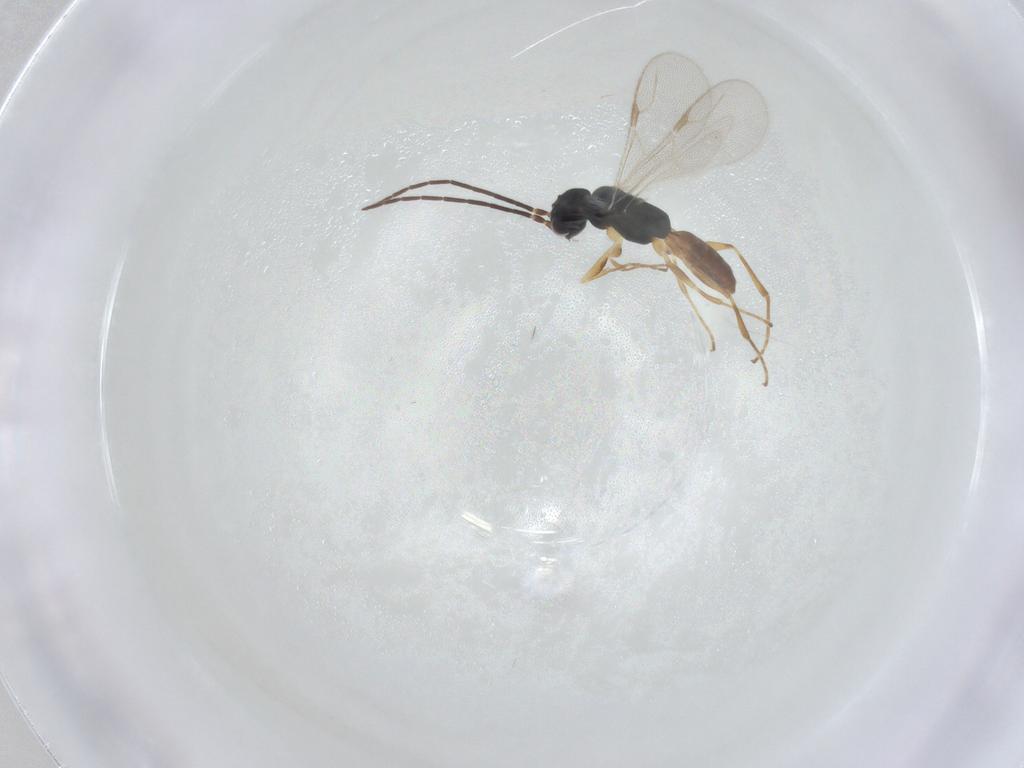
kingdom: Animalia
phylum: Arthropoda
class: Insecta
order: Hymenoptera
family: Dryinidae
